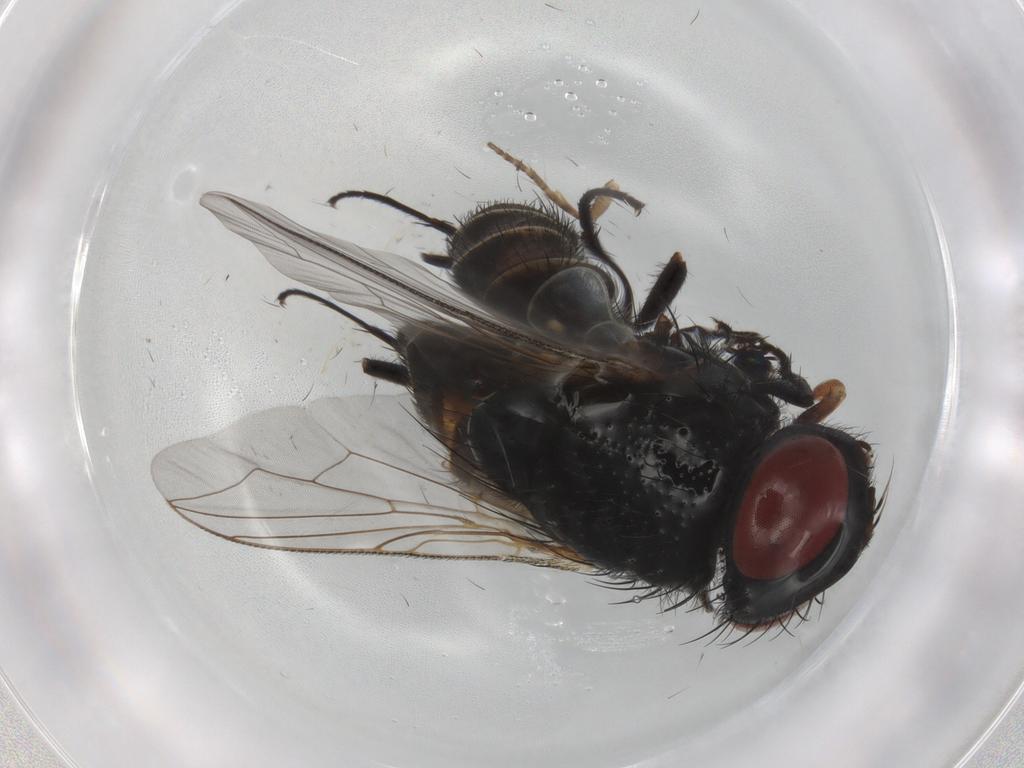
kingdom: Animalia
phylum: Arthropoda
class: Insecta
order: Diptera
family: Sarcophagidae
